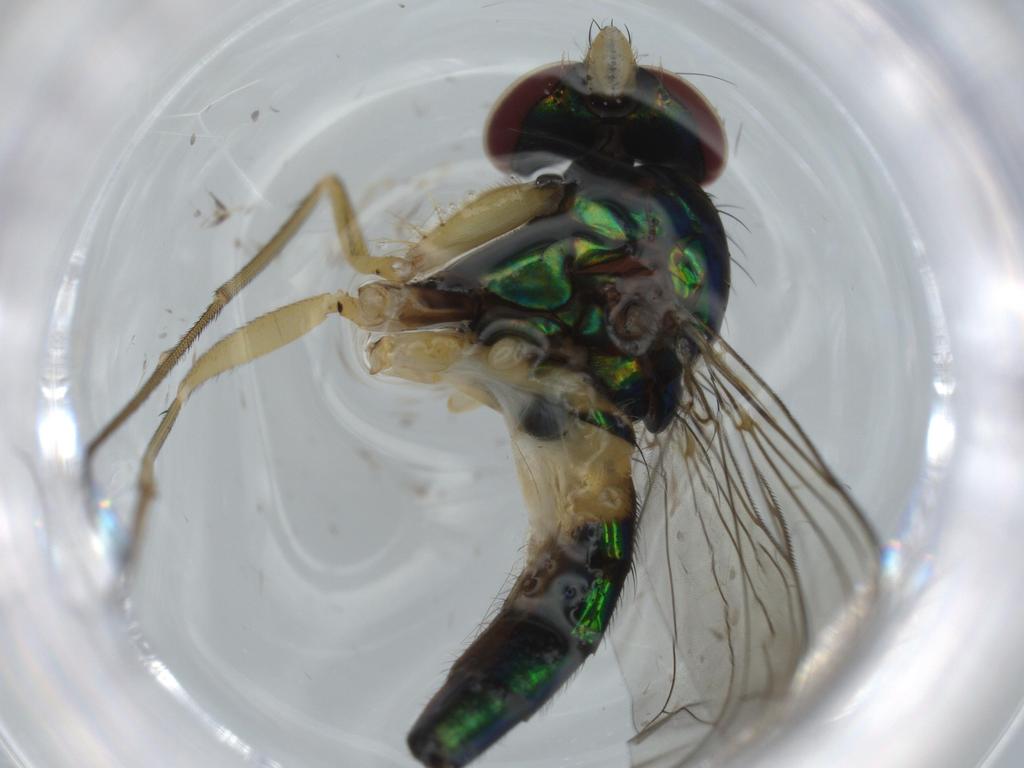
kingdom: Animalia
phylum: Arthropoda
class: Insecta
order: Diptera
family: Dolichopodidae
